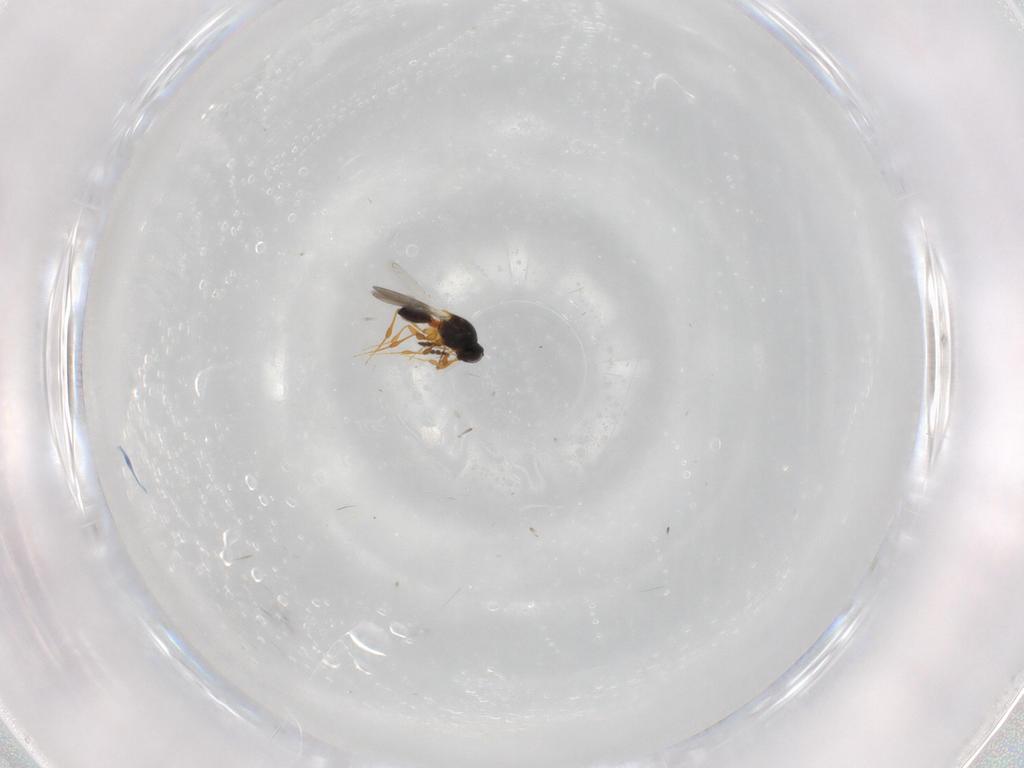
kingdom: Animalia
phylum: Arthropoda
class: Insecta
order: Hymenoptera
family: Platygastridae
